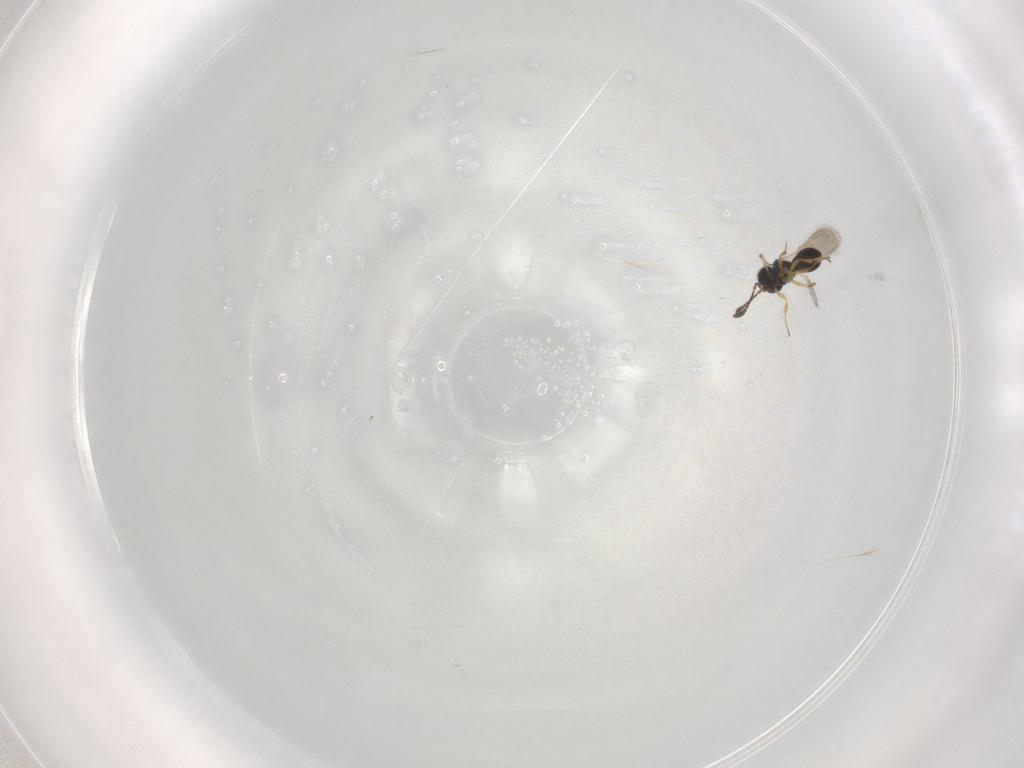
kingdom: Animalia
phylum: Arthropoda
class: Insecta
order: Hymenoptera
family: Scelionidae
